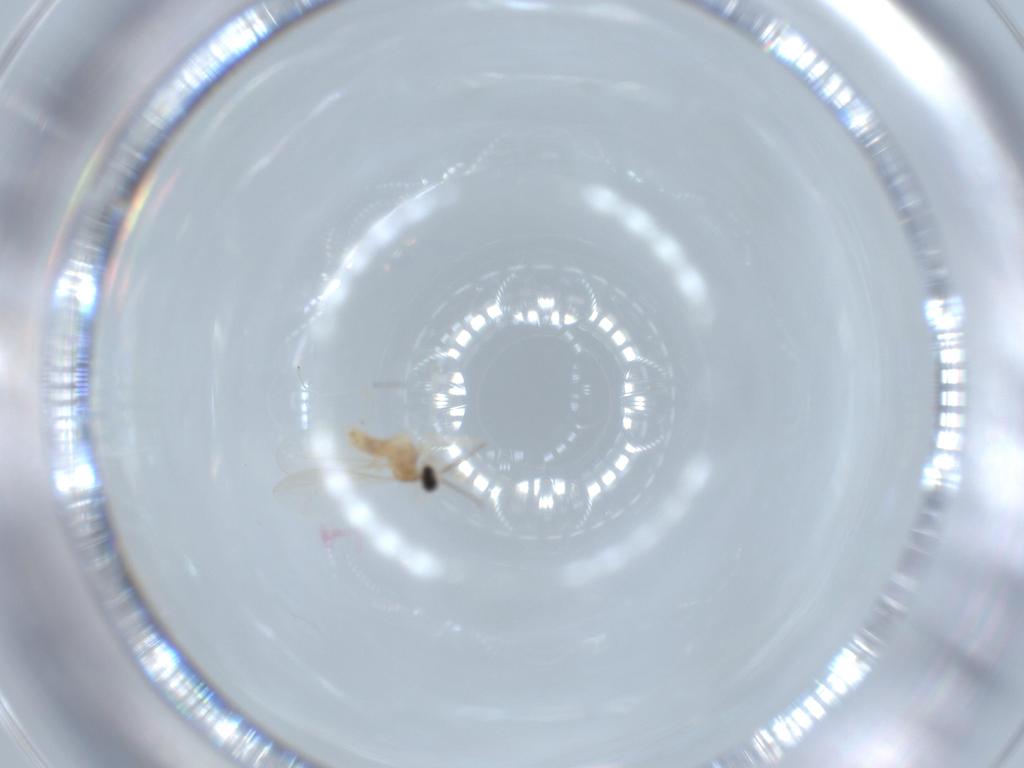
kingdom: Animalia
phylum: Arthropoda
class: Insecta
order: Diptera
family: Cecidomyiidae
